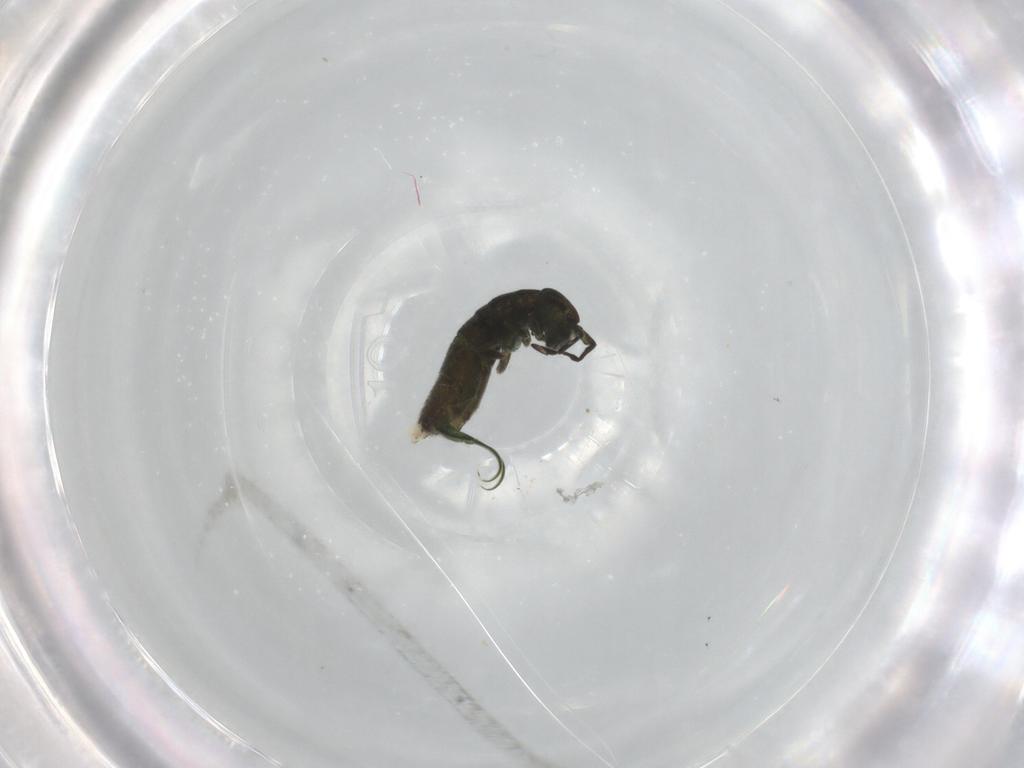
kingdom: Animalia
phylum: Arthropoda
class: Collembola
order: Entomobryomorpha
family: Isotomidae
